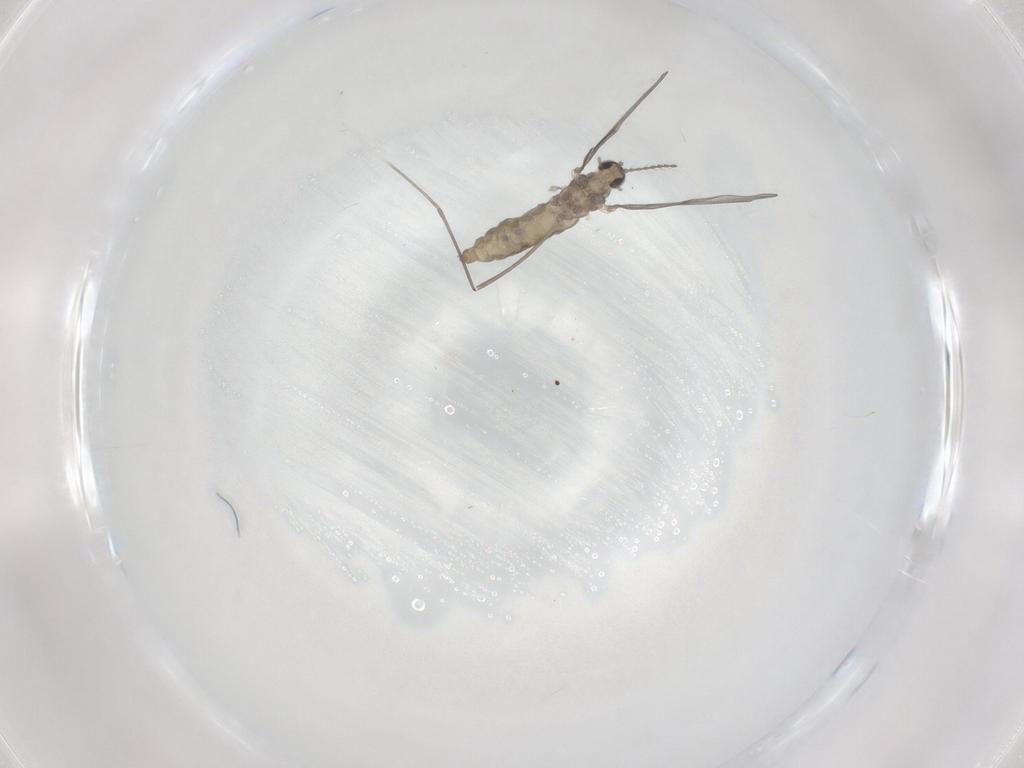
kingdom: Animalia
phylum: Arthropoda
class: Insecta
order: Diptera
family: Cecidomyiidae
